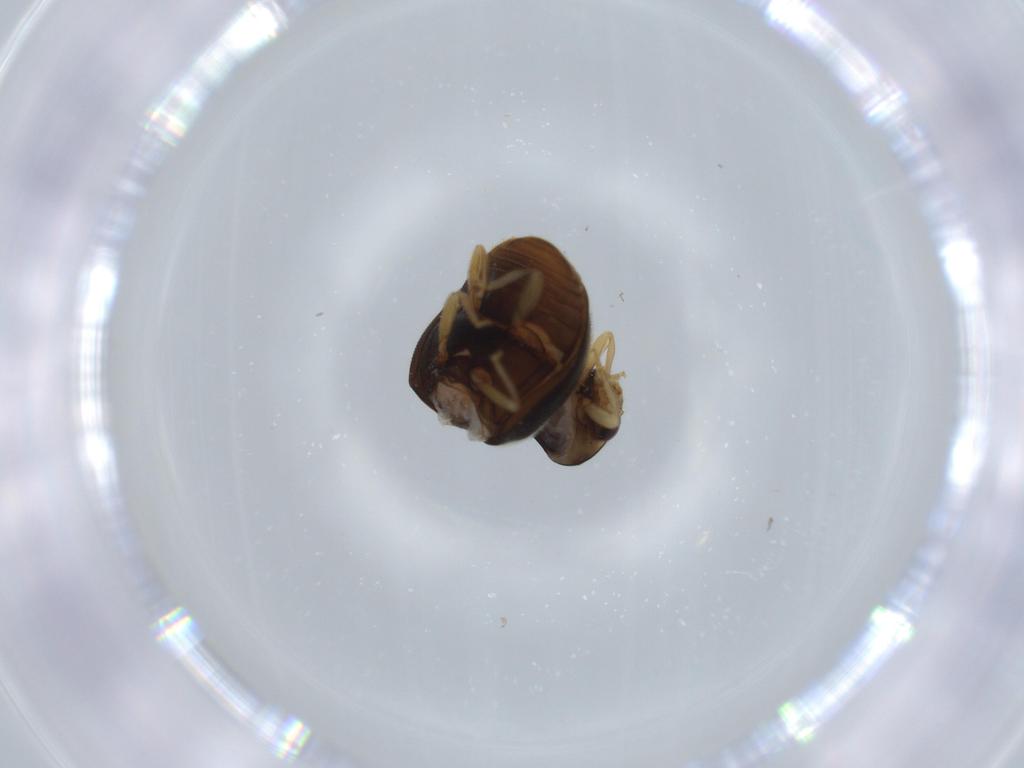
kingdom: Animalia
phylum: Arthropoda
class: Insecta
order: Coleoptera
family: Coccinellidae
